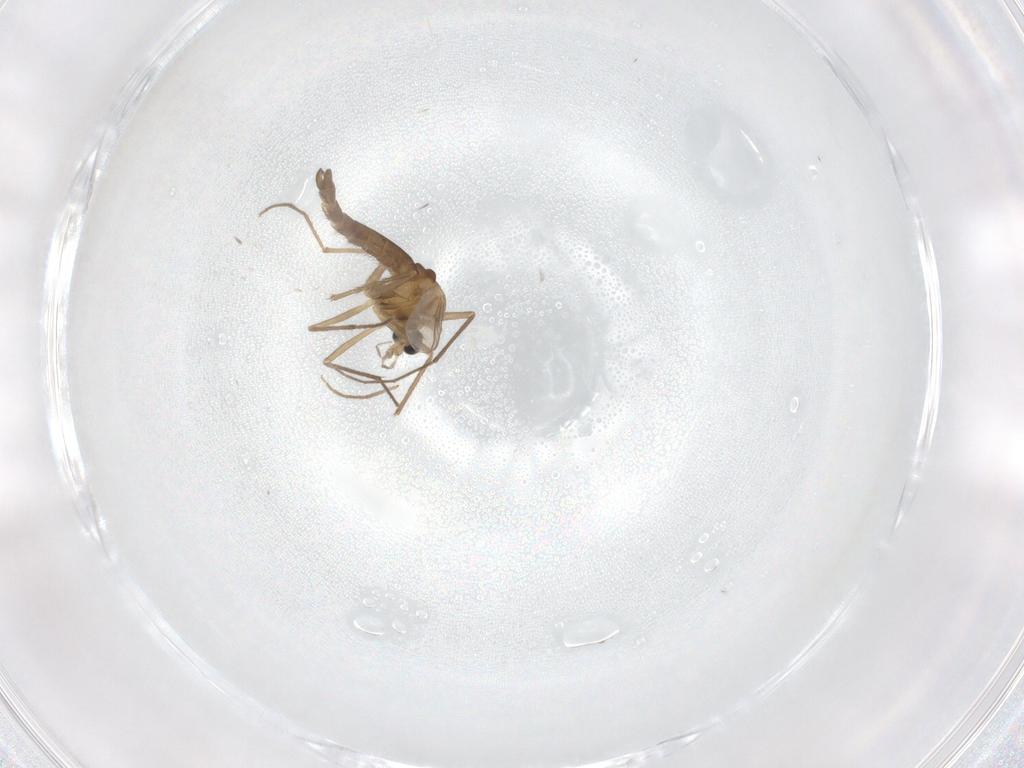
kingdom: Animalia
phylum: Arthropoda
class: Insecta
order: Diptera
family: Chironomidae
